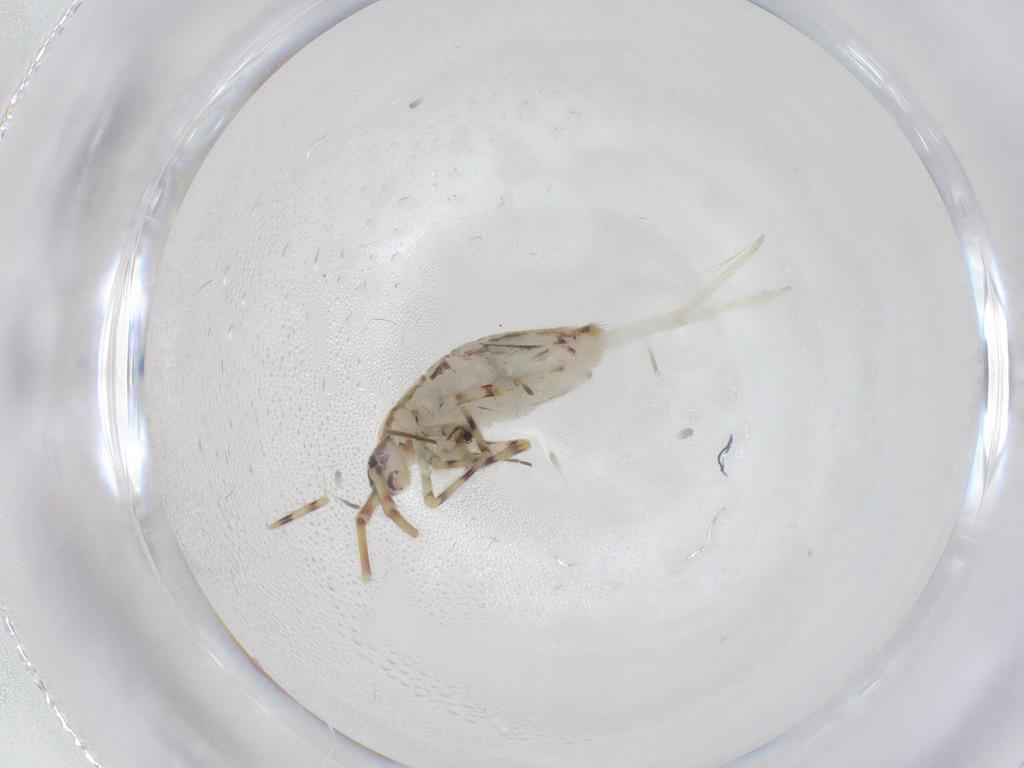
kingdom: Animalia
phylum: Arthropoda
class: Collembola
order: Entomobryomorpha
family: Entomobryidae
